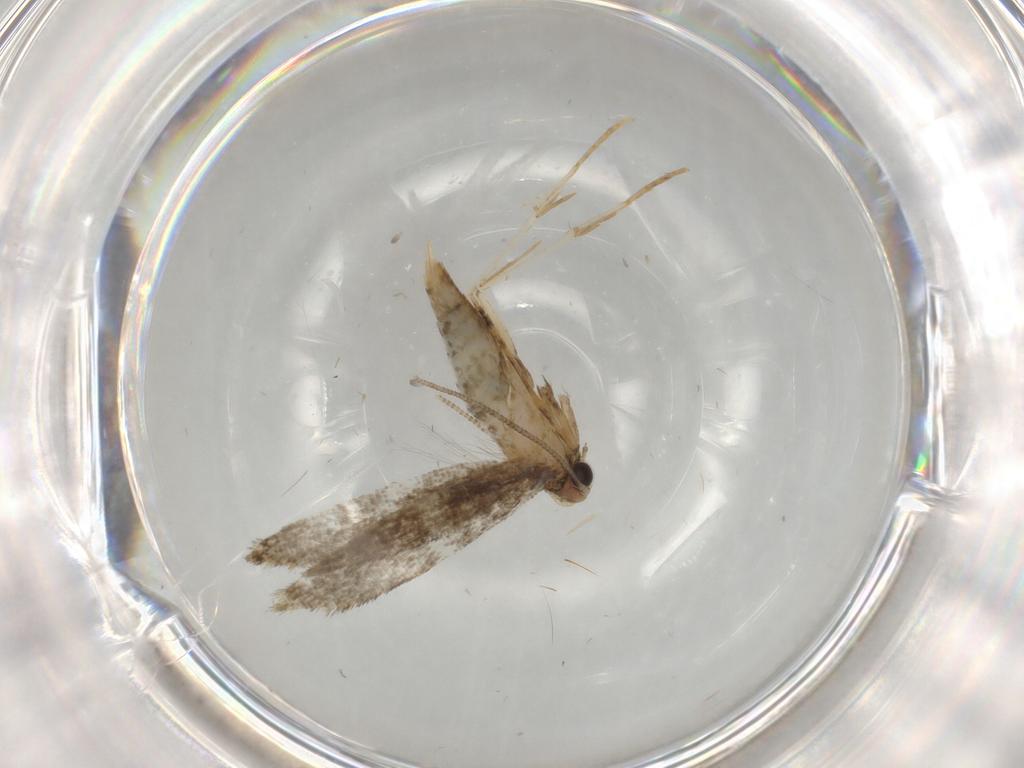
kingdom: Animalia
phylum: Arthropoda
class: Insecta
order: Lepidoptera
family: Tineidae
